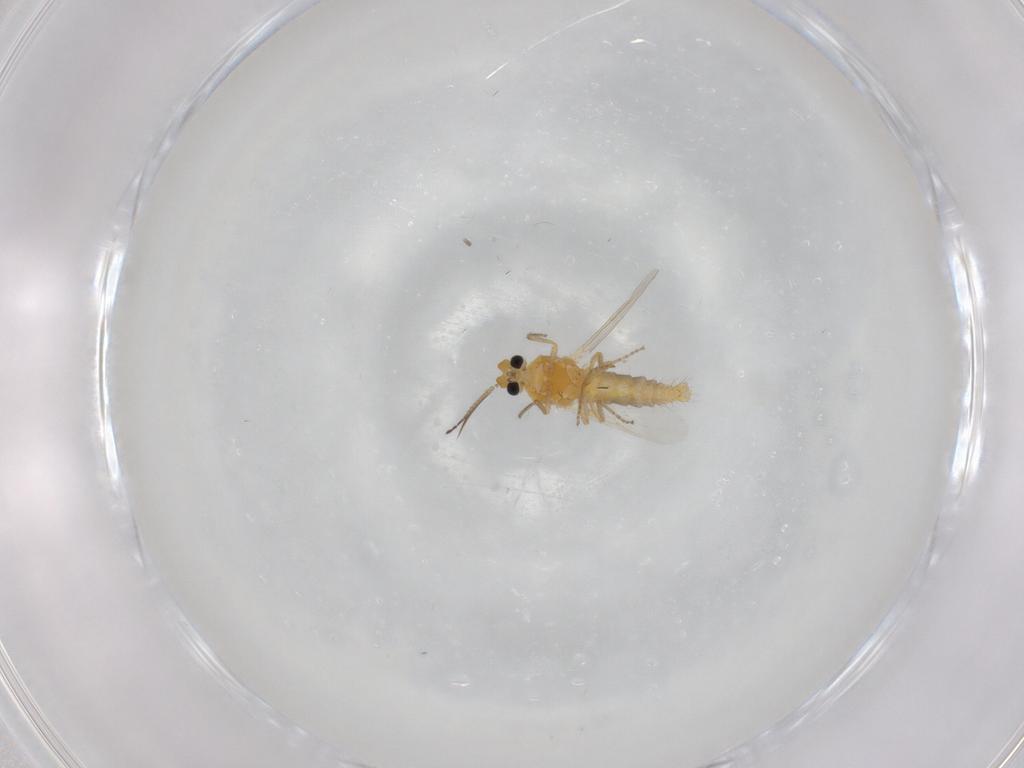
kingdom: Animalia
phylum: Arthropoda
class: Insecta
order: Diptera
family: Ceratopogonidae
